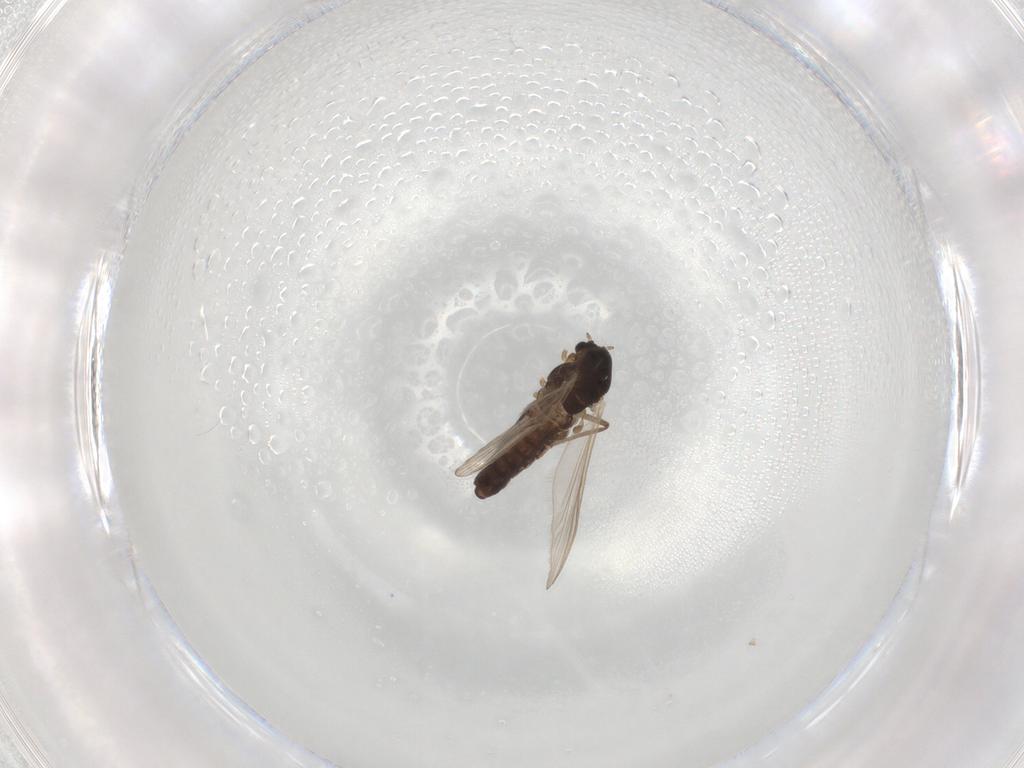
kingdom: Animalia
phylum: Arthropoda
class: Insecta
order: Diptera
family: Chironomidae
